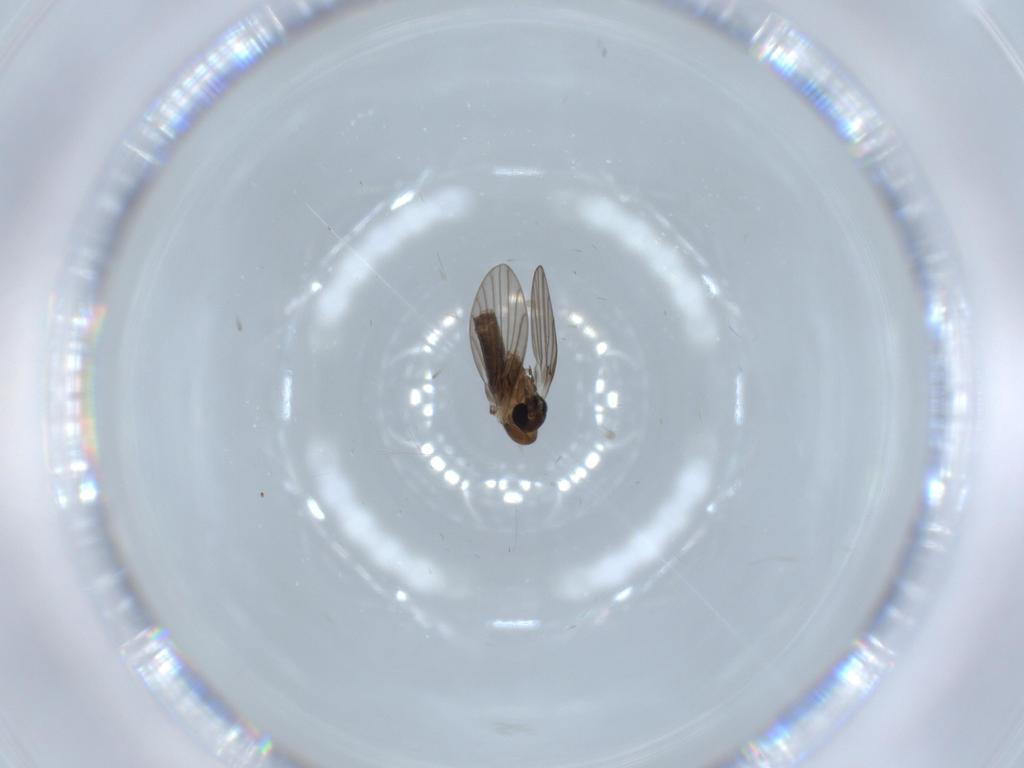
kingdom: Animalia
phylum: Arthropoda
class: Insecta
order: Diptera
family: Psychodidae
